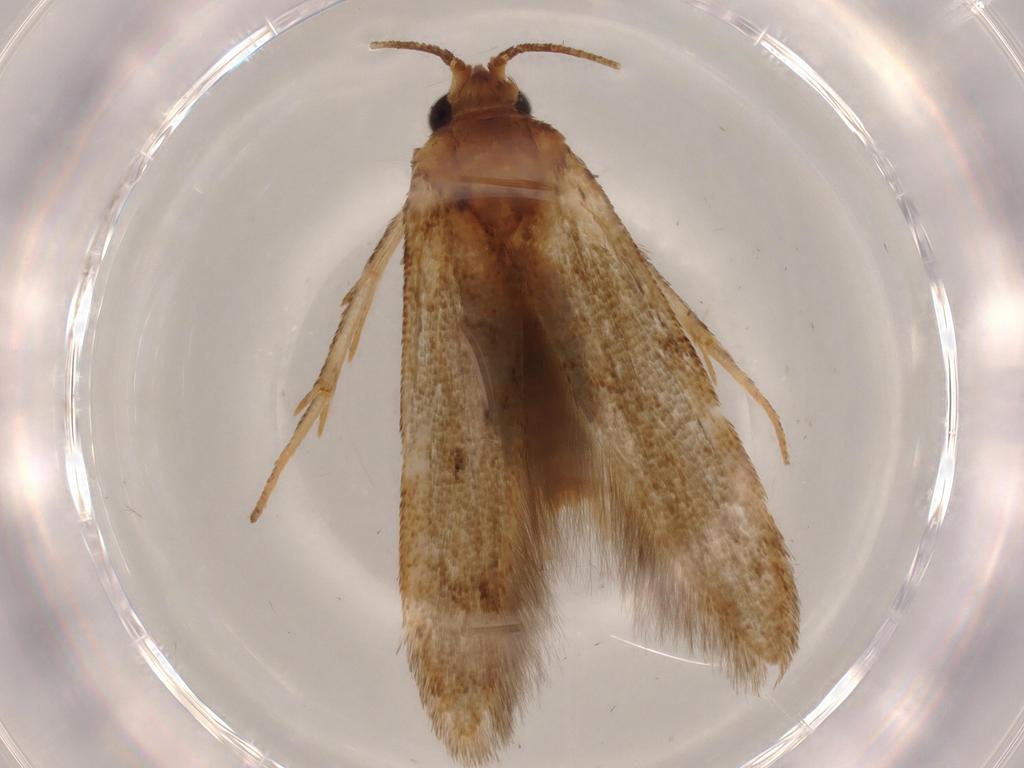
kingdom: Animalia
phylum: Arthropoda
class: Insecta
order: Lepidoptera
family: Blastobasidae
